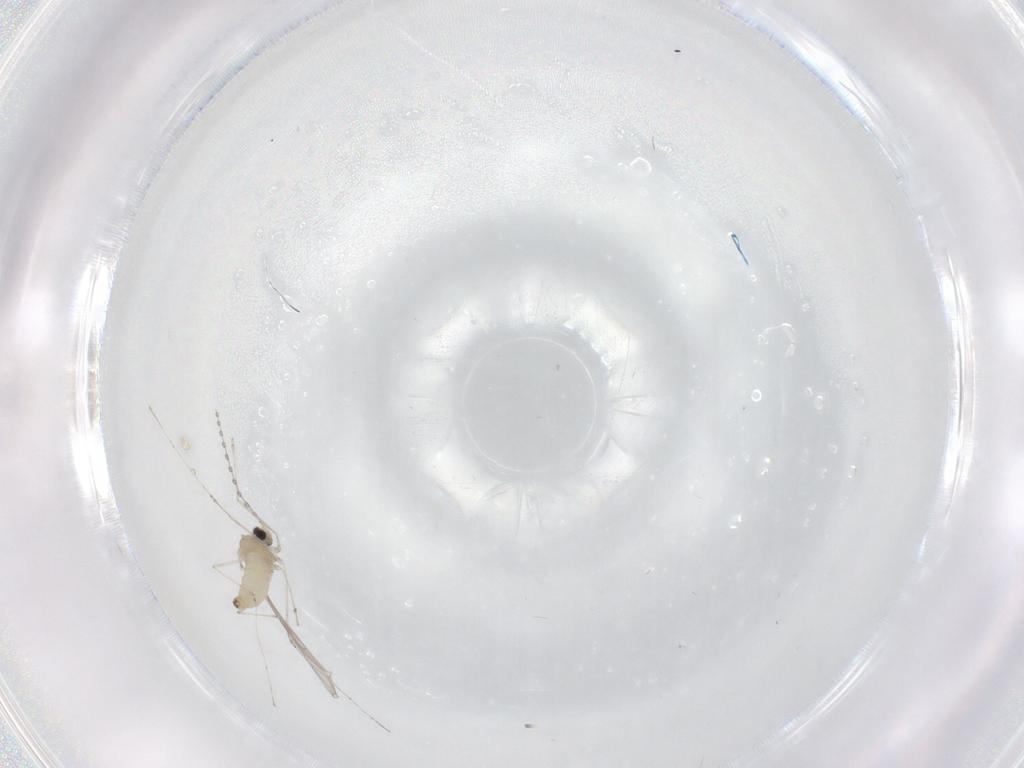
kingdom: Animalia
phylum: Arthropoda
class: Insecta
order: Diptera
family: Cecidomyiidae
